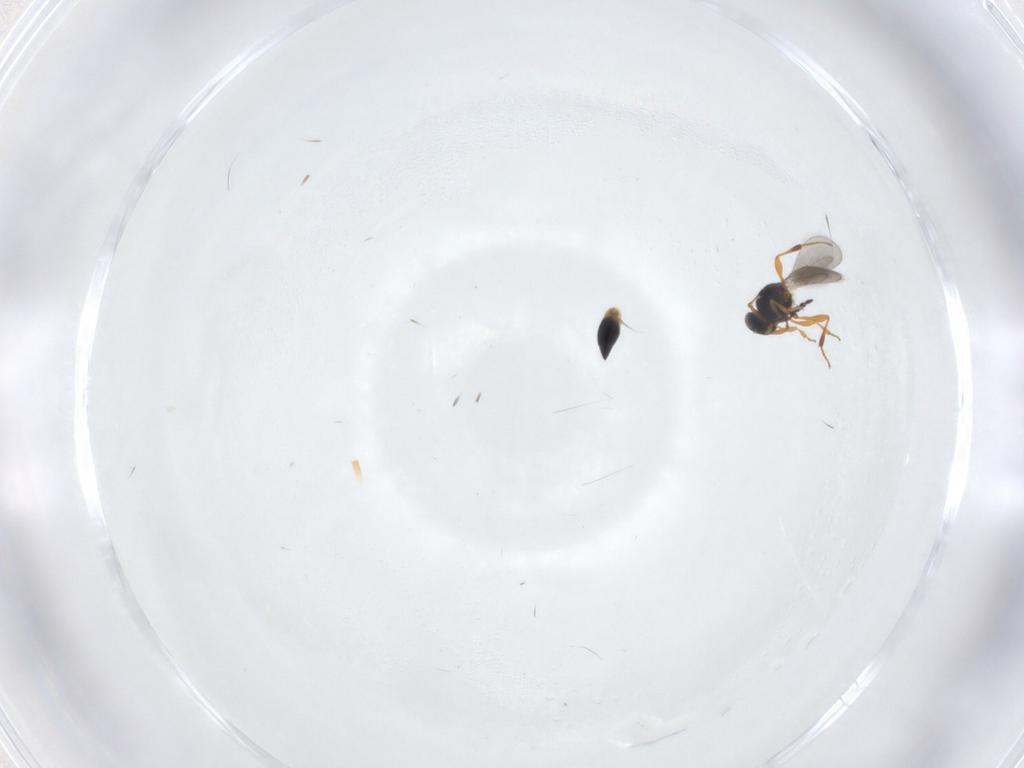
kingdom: Animalia
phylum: Arthropoda
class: Insecta
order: Hymenoptera
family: Platygastridae
